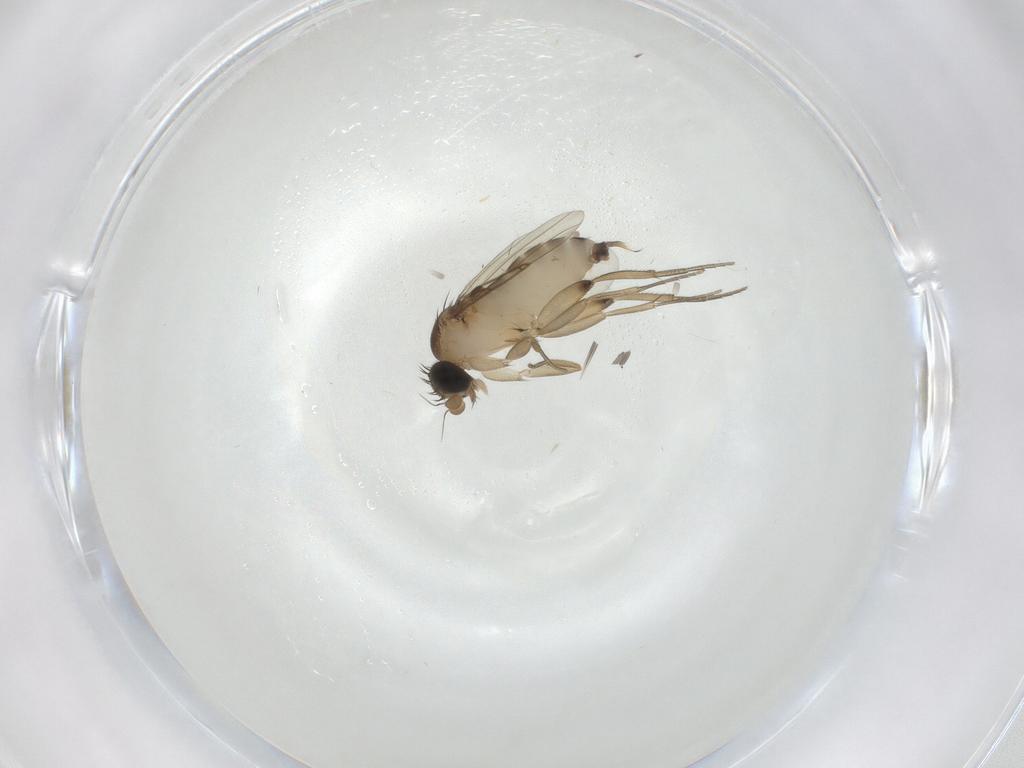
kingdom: Animalia
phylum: Arthropoda
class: Insecta
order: Diptera
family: Phoridae
